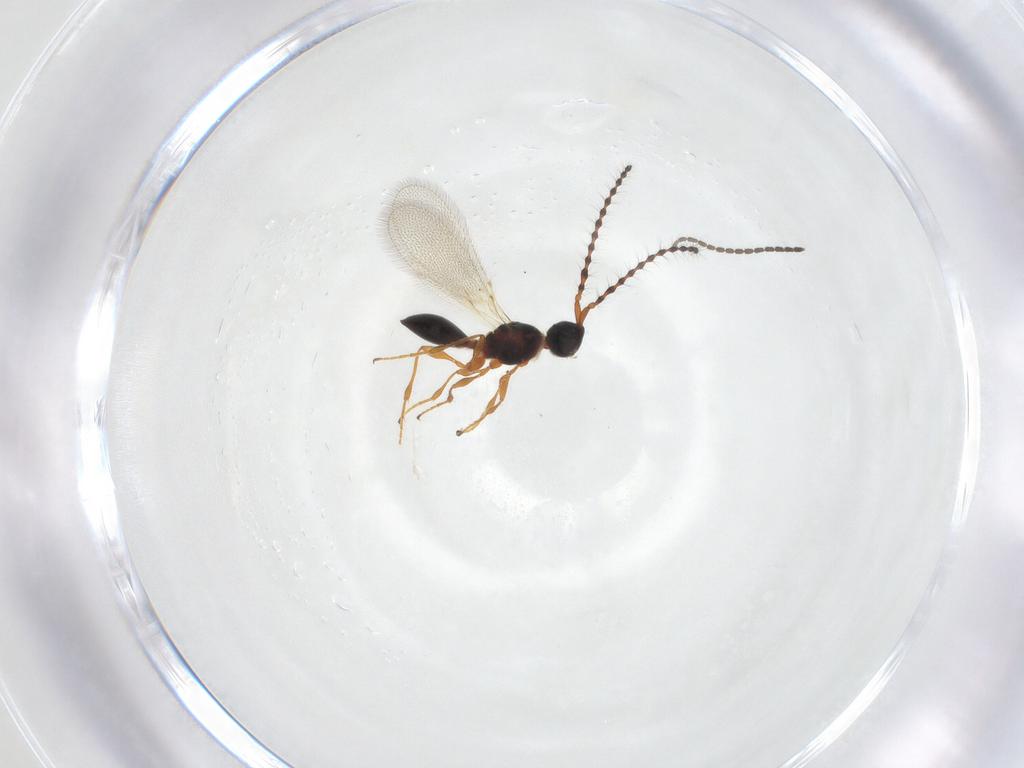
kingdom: Animalia
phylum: Arthropoda
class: Insecta
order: Hymenoptera
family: Diapriidae
